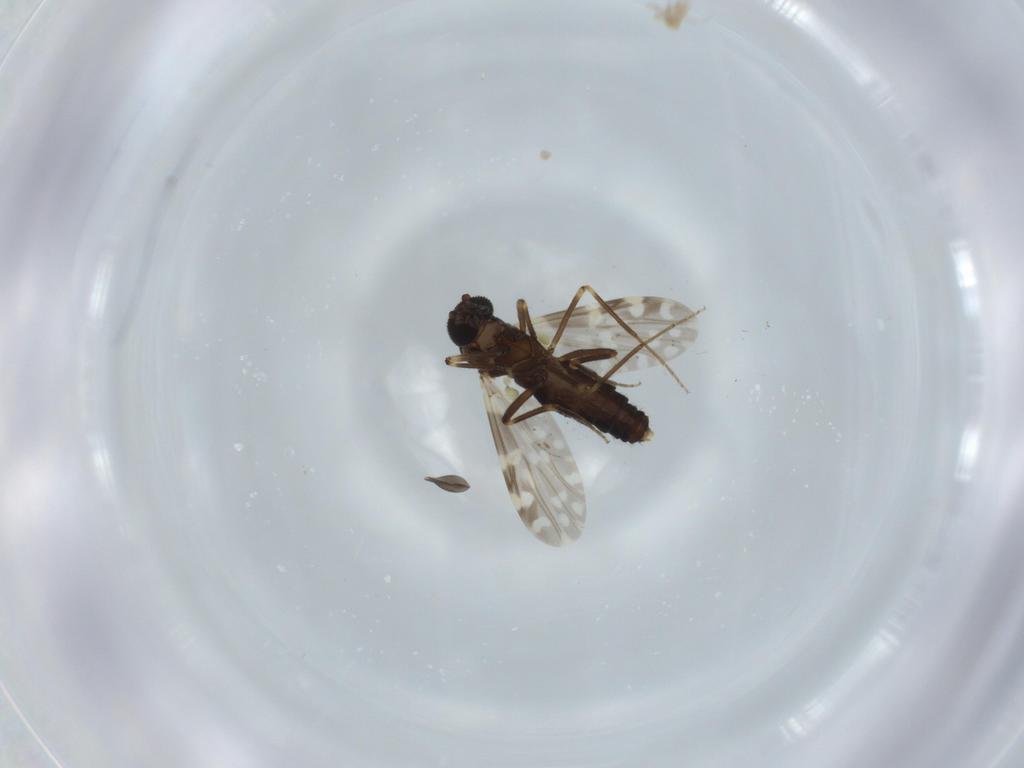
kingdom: Animalia
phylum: Arthropoda
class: Insecta
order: Diptera
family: Sciaridae
